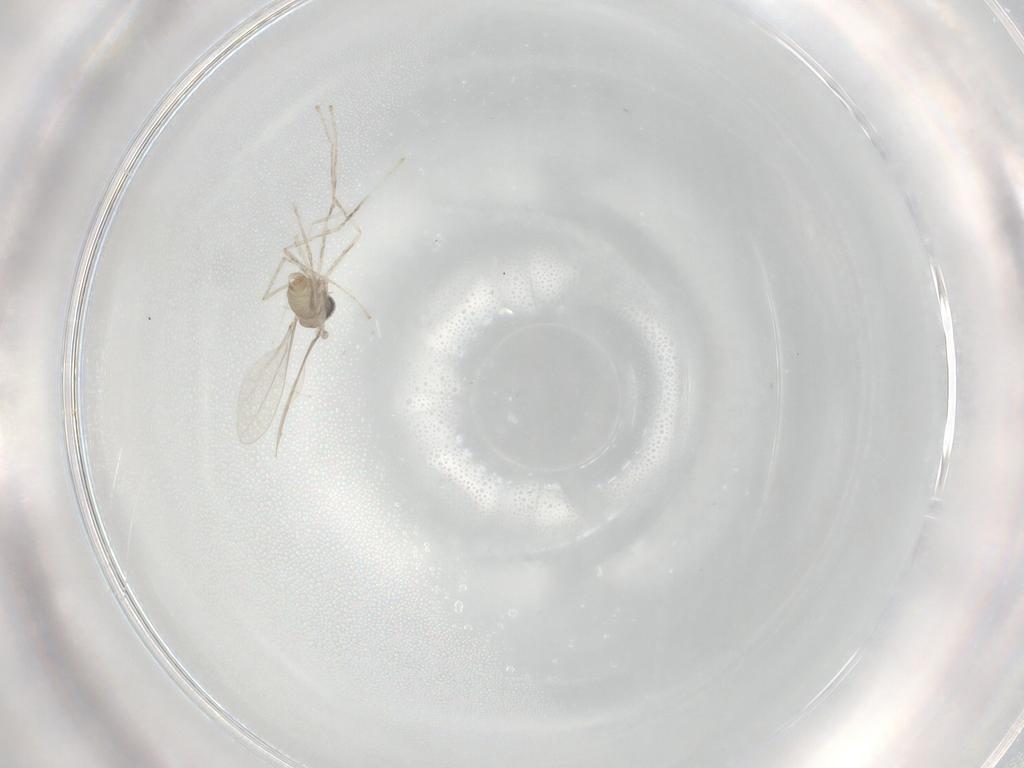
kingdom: Animalia
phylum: Arthropoda
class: Insecta
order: Diptera
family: Cecidomyiidae
